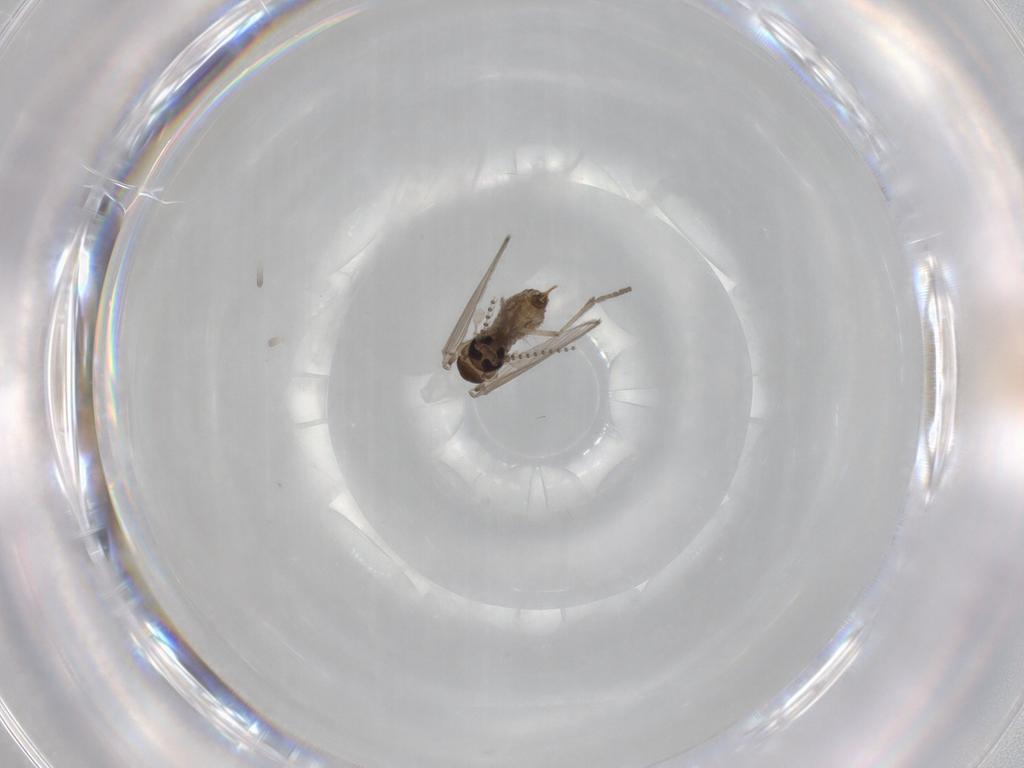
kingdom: Animalia
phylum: Arthropoda
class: Insecta
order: Diptera
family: Psychodidae
